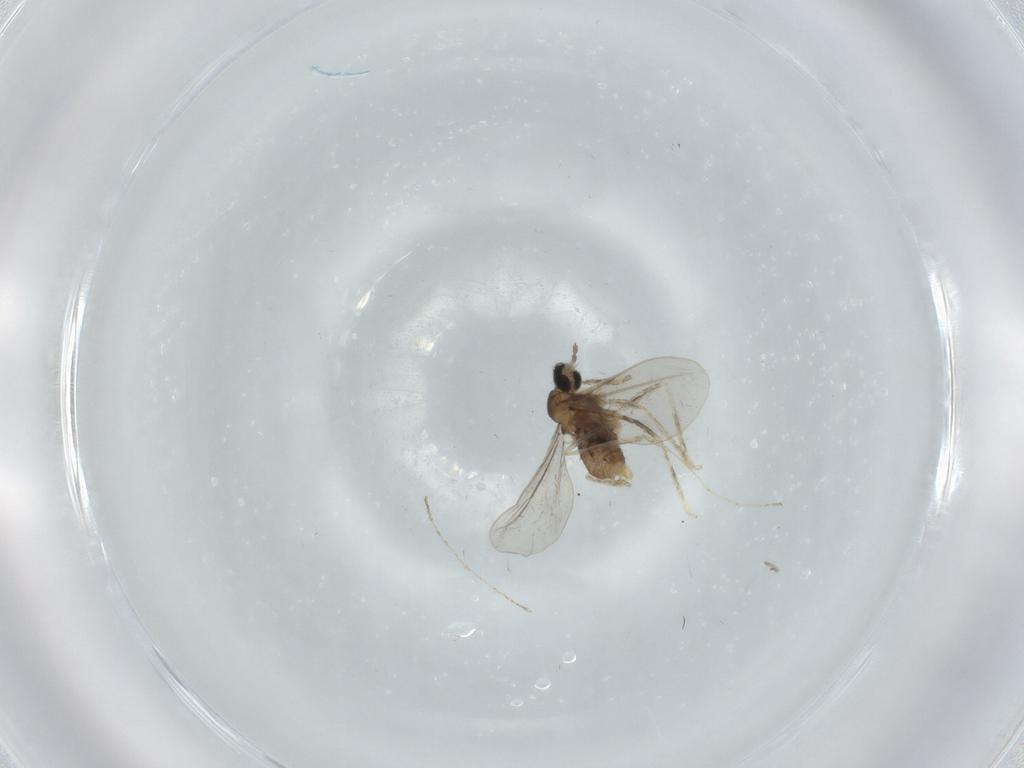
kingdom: Animalia
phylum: Arthropoda
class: Insecta
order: Diptera
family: Cecidomyiidae
